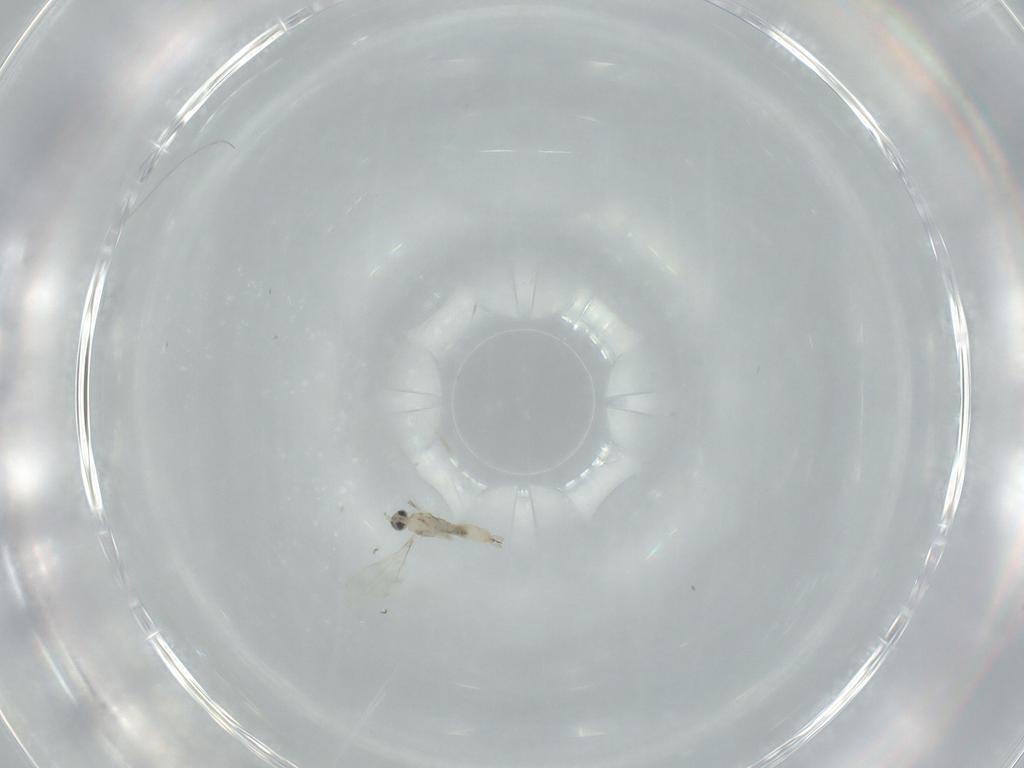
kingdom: Animalia
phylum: Arthropoda
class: Insecta
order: Diptera
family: Cecidomyiidae
